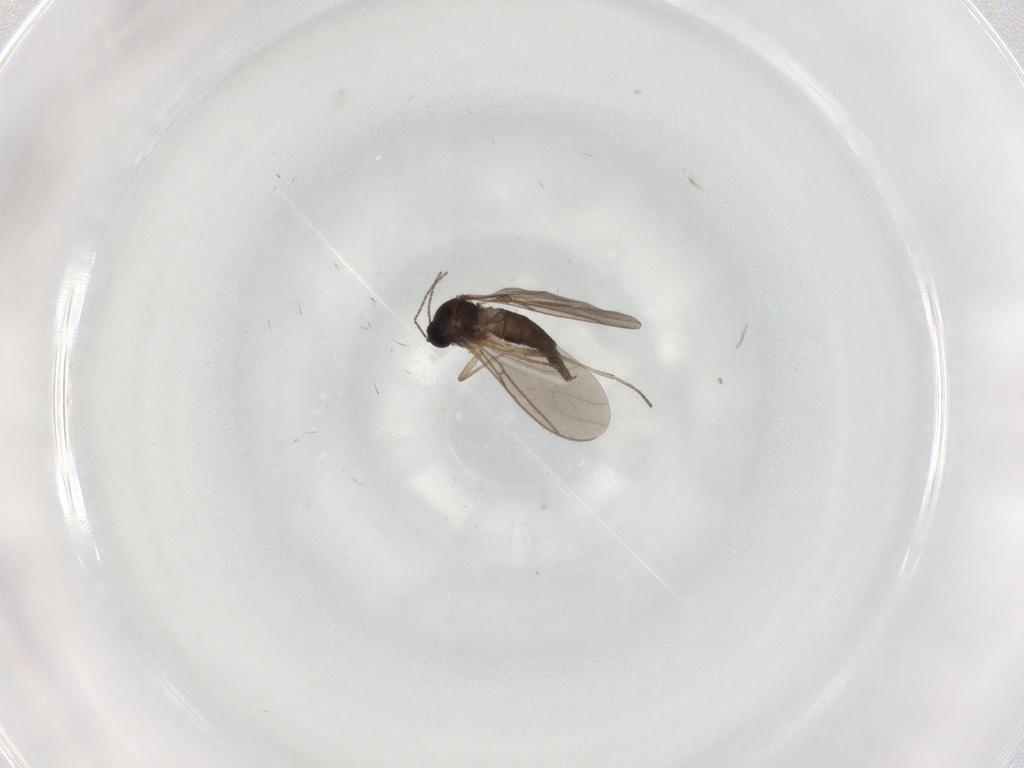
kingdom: Animalia
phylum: Arthropoda
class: Insecta
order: Diptera
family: Sciaridae
